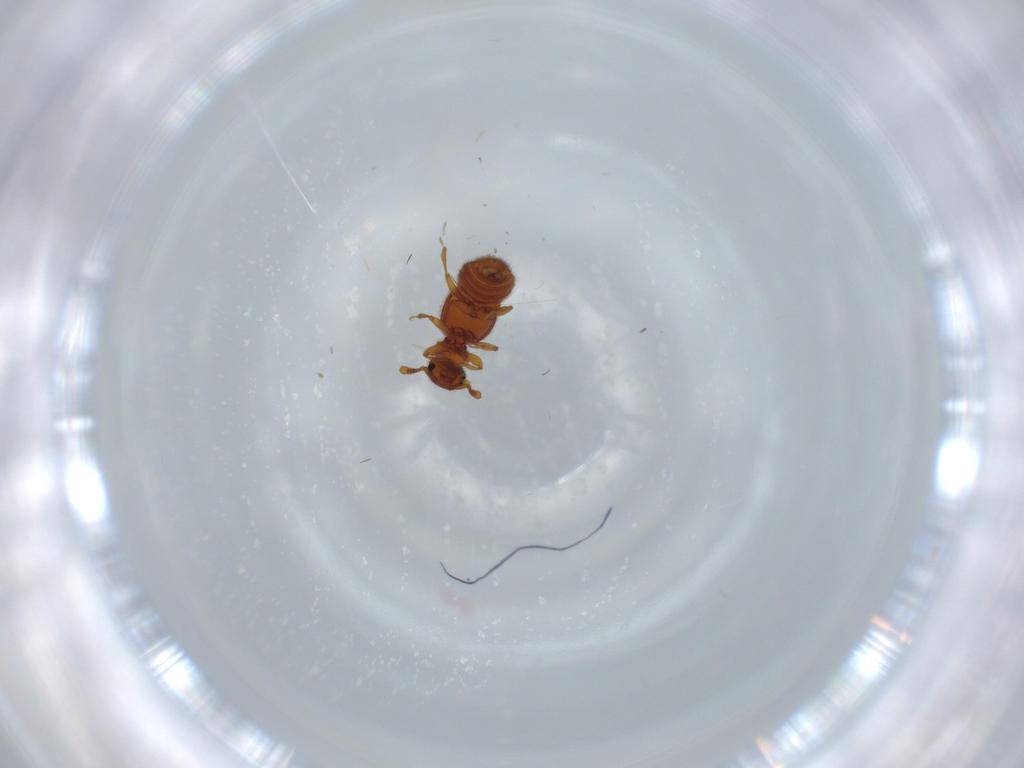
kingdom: Animalia
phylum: Arthropoda
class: Insecta
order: Coleoptera
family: Staphylinidae
